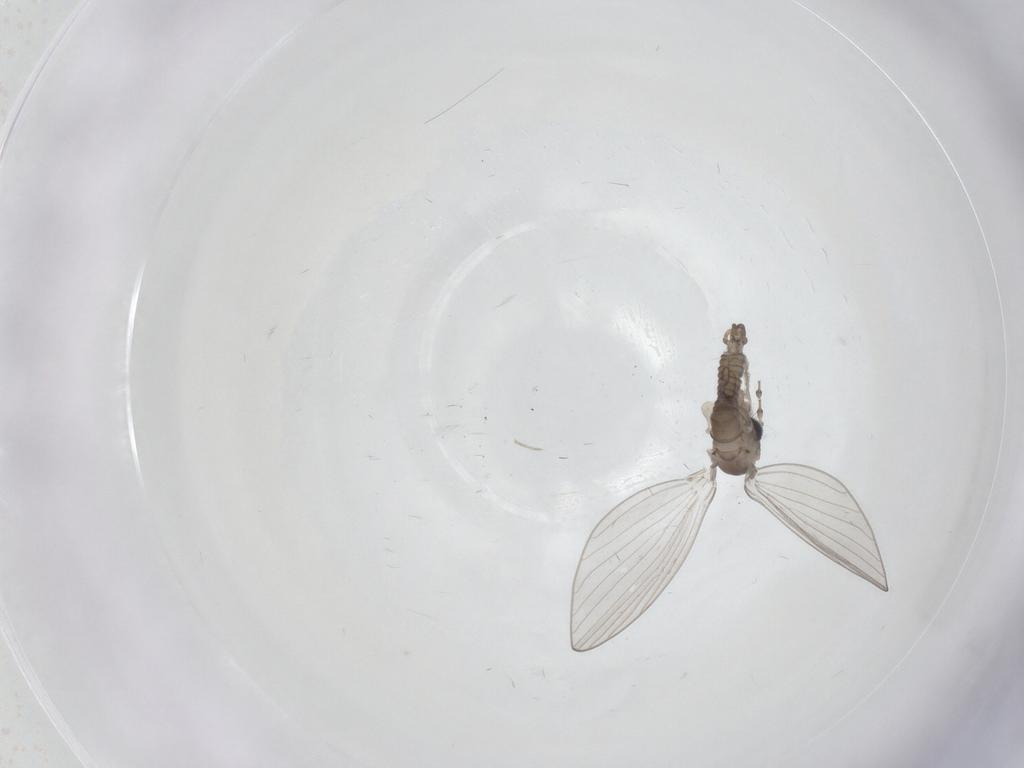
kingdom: Animalia
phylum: Arthropoda
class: Insecta
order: Diptera
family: Psychodidae
